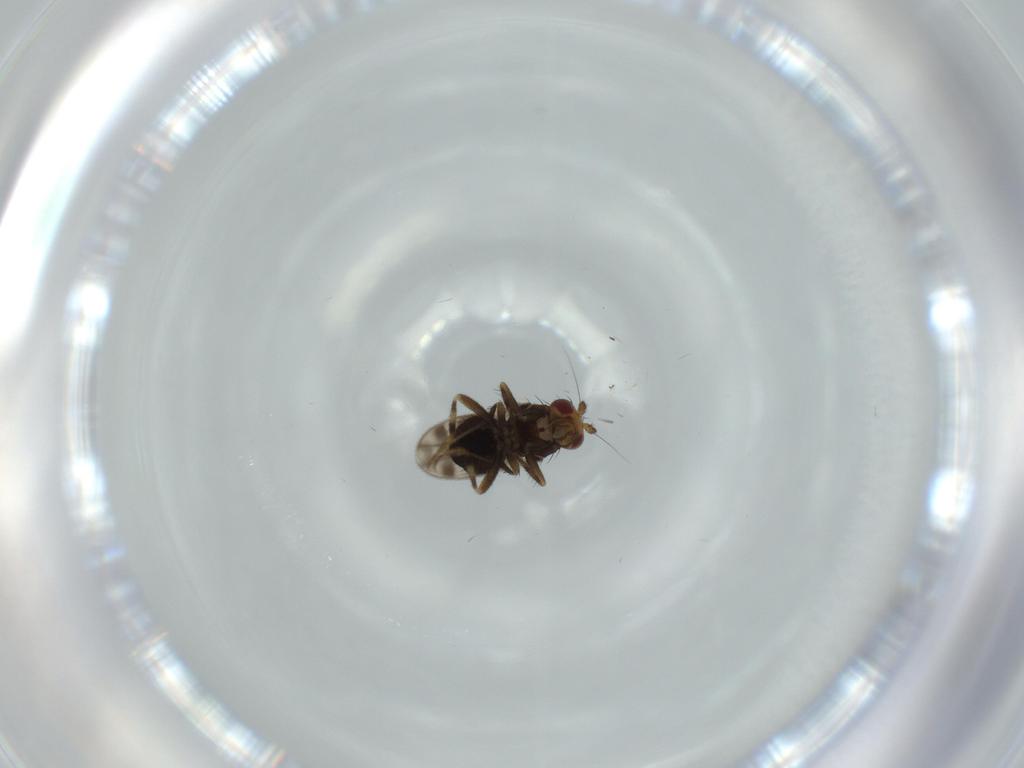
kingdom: Animalia
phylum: Arthropoda
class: Insecta
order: Diptera
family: Sphaeroceridae
